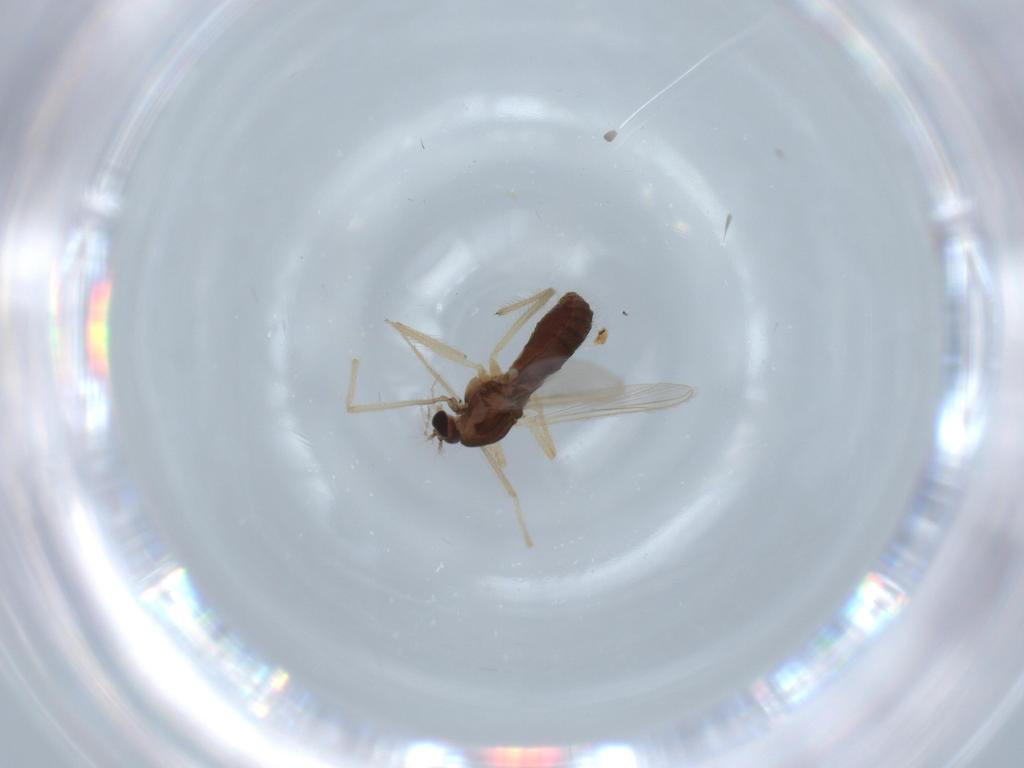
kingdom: Animalia
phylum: Arthropoda
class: Insecta
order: Diptera
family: Chironomidae
